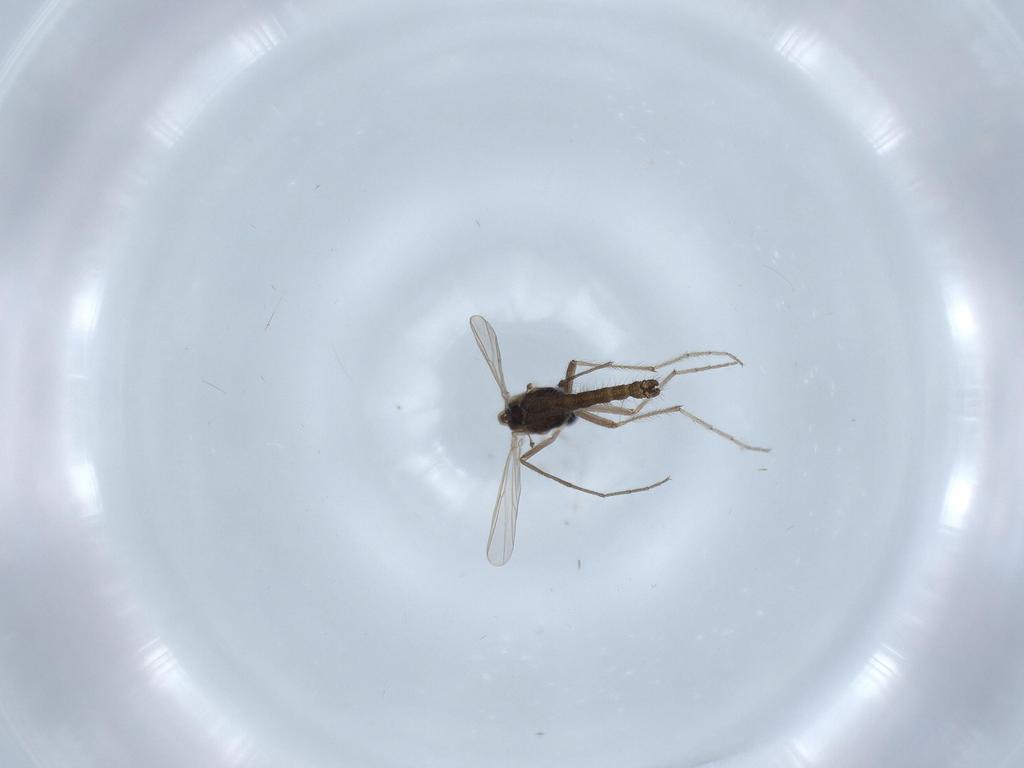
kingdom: Animalia
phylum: Arthropoda
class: Insecta
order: Diptera
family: Chironomidae
